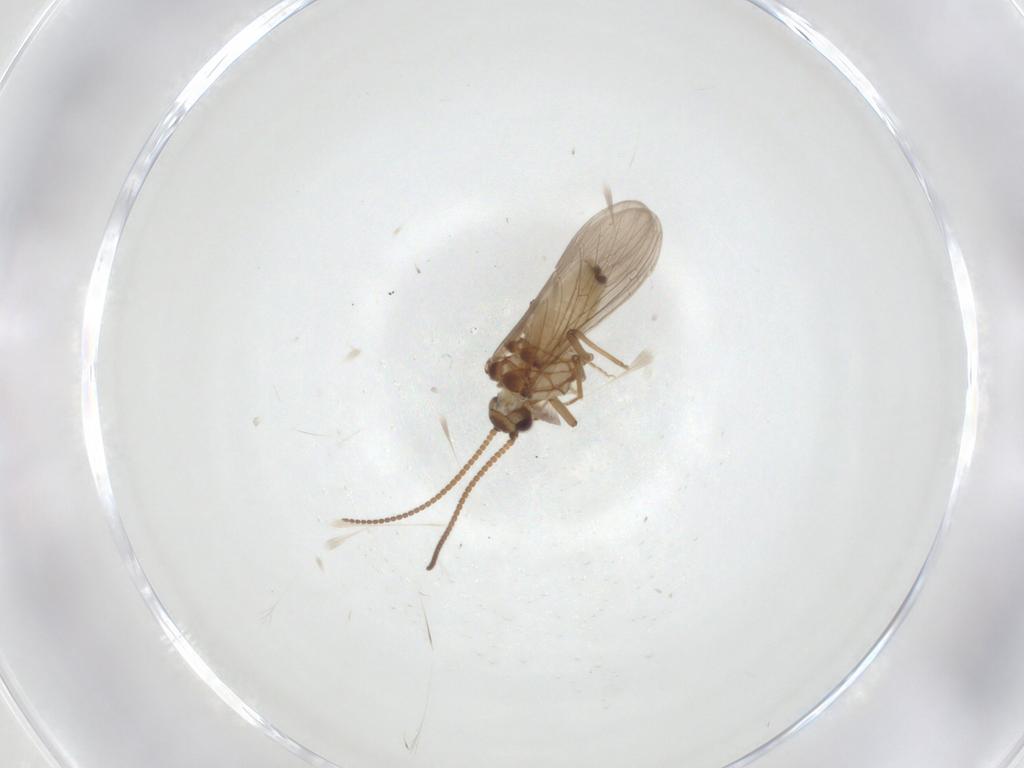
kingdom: Animalia
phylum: Arthropoda
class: Insecta
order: Neuroptera
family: Coniopterygidae
